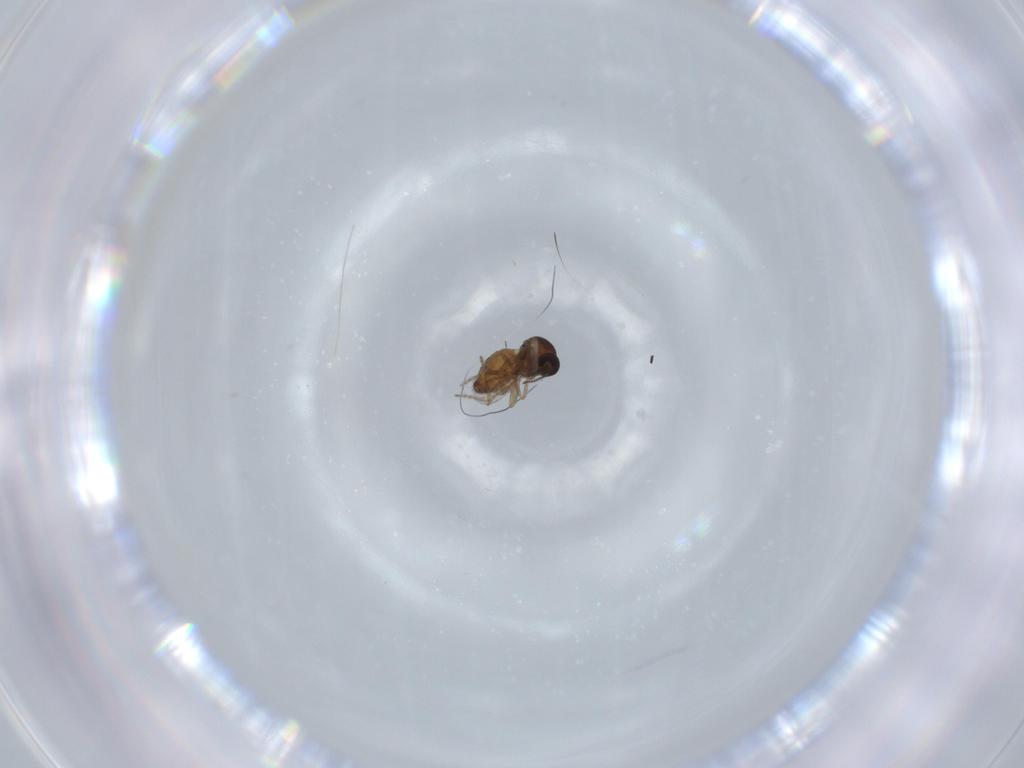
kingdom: Animalia
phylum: Arthropoda
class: Insecta
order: Diptera
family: Ceratopogonidae
